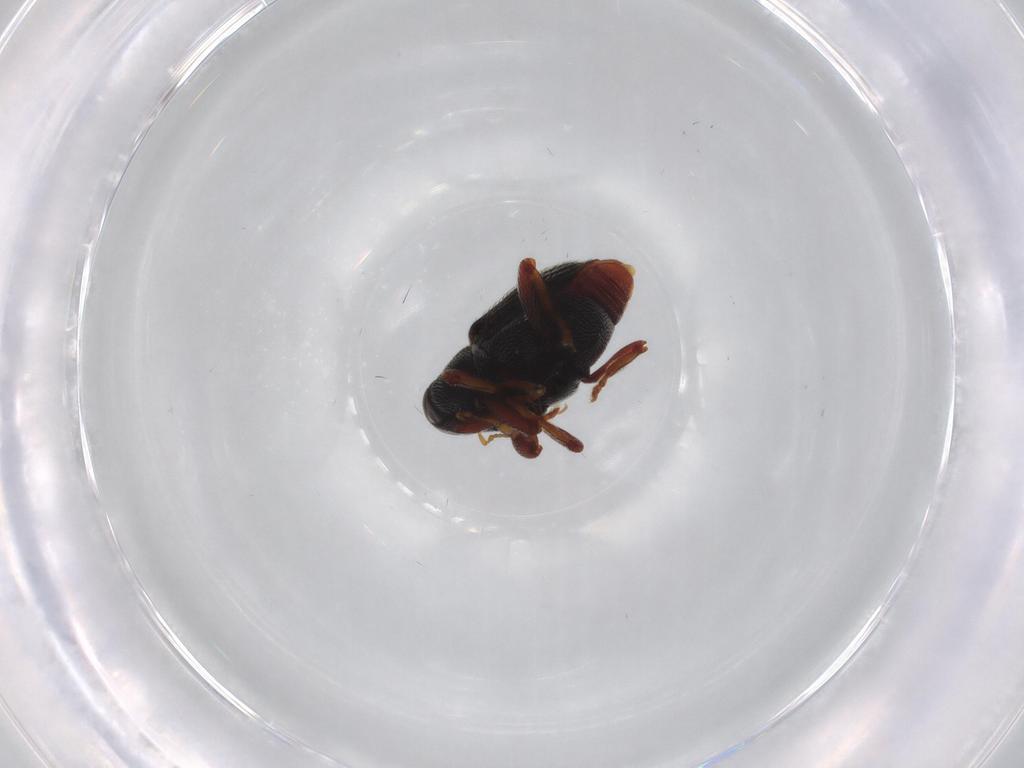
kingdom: Animalia
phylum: Arthropoda
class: Insecta
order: Coleoptera
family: Curculionidae
